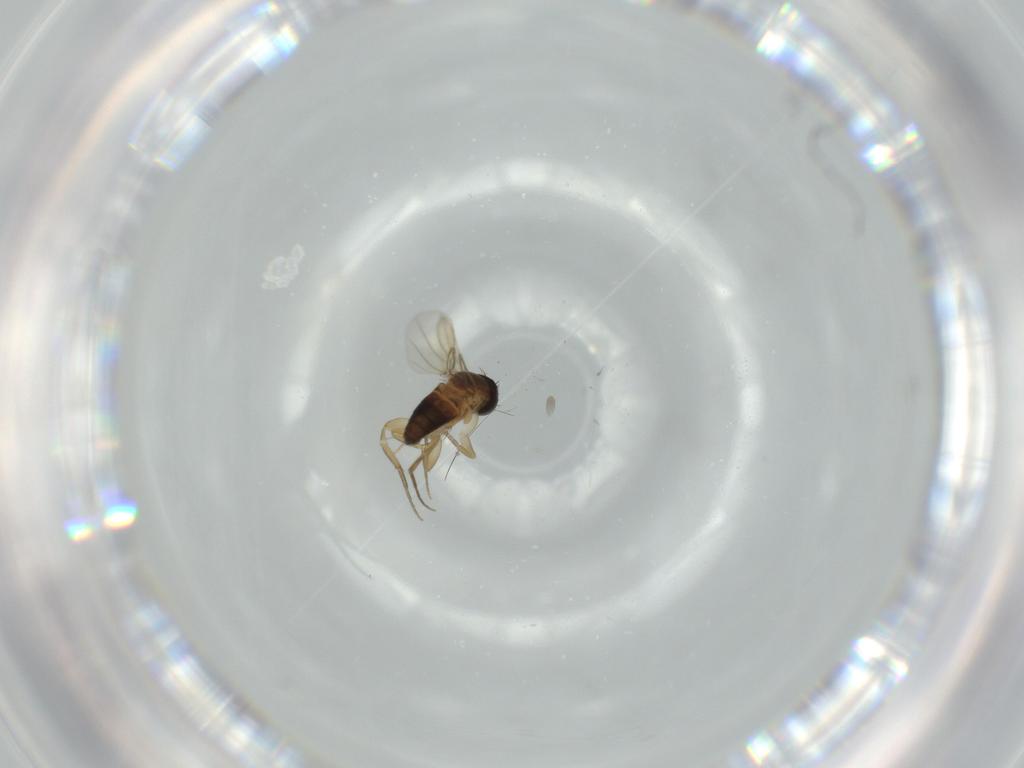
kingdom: Animalia
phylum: Arthropoda
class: Insecta
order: Diptera
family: Phoridae
